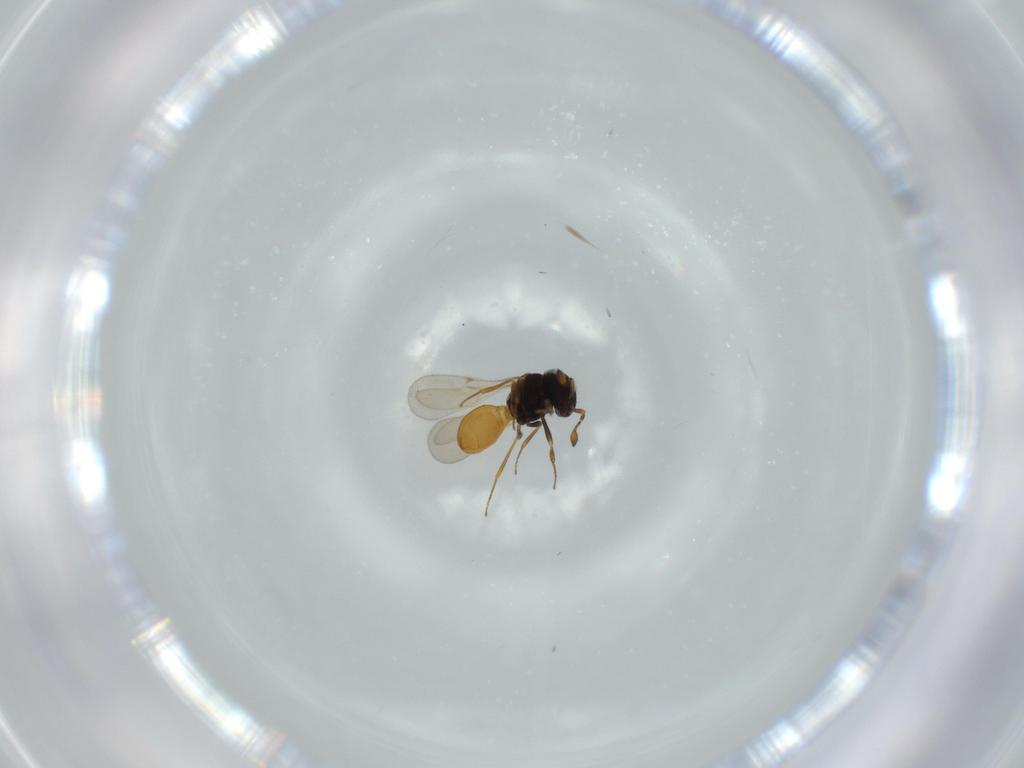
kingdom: Animalia
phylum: Arthropoda
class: Insecta
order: Hymenoptera
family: Scelionidae
